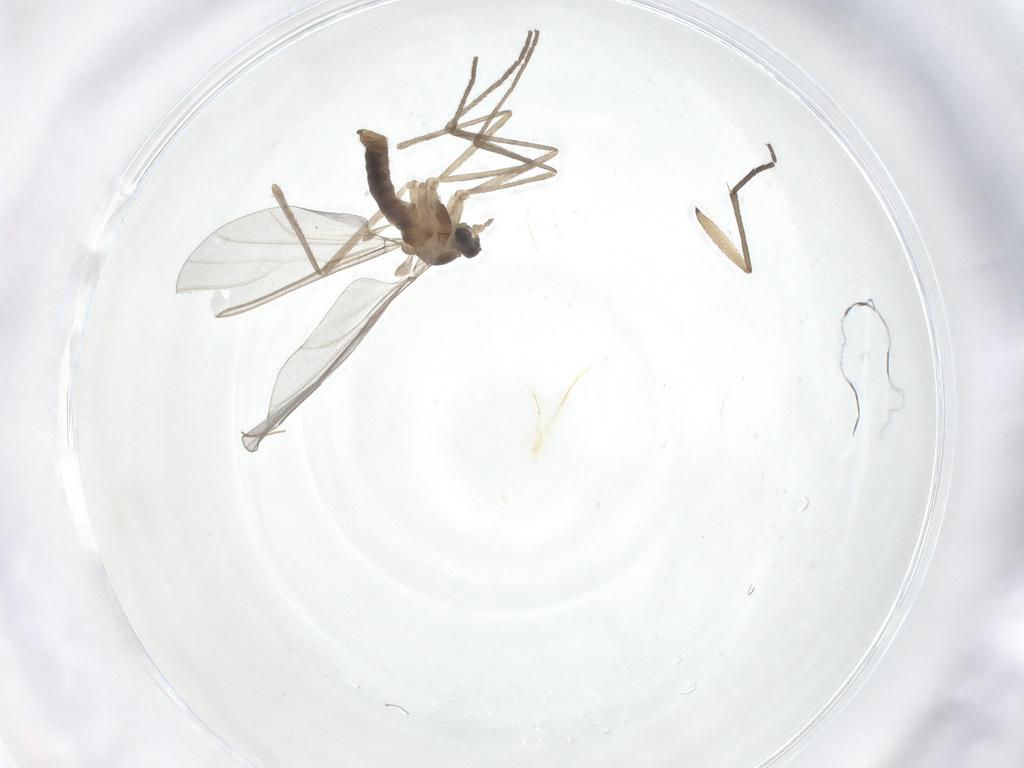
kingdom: Animalia
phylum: Arthropoda
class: Insecta
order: Diptera
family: Cecidomyiidae
